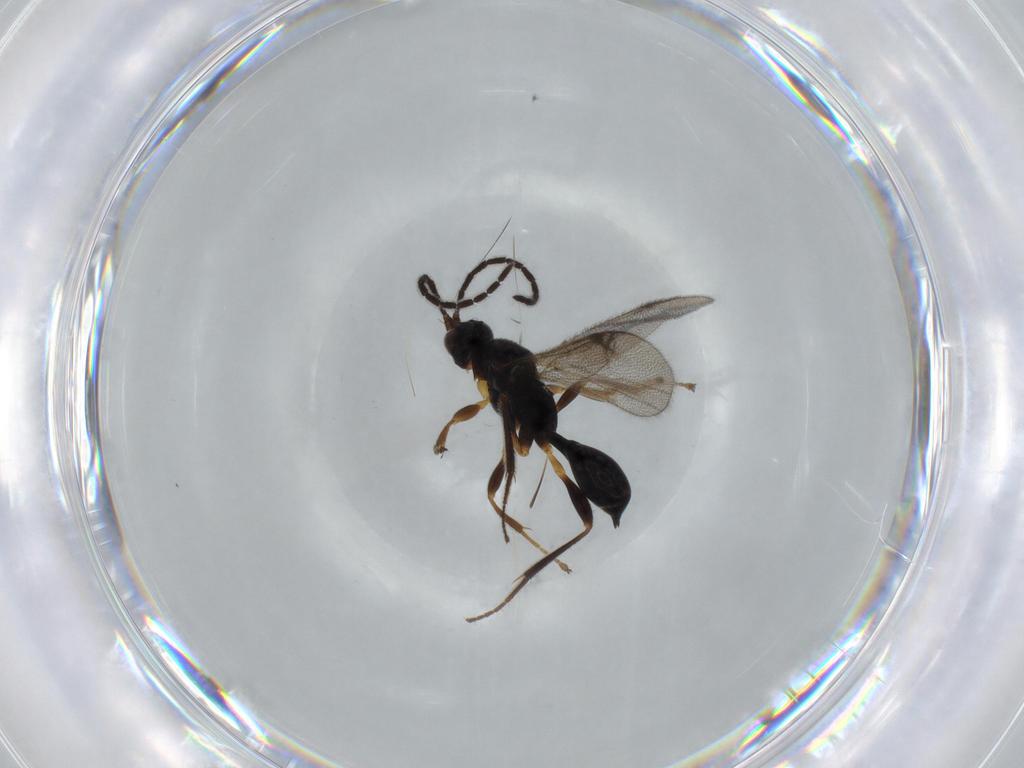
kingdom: Animalia
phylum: Arthropoda
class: Insecta
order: Hymenoptera
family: Proctotrupidae
